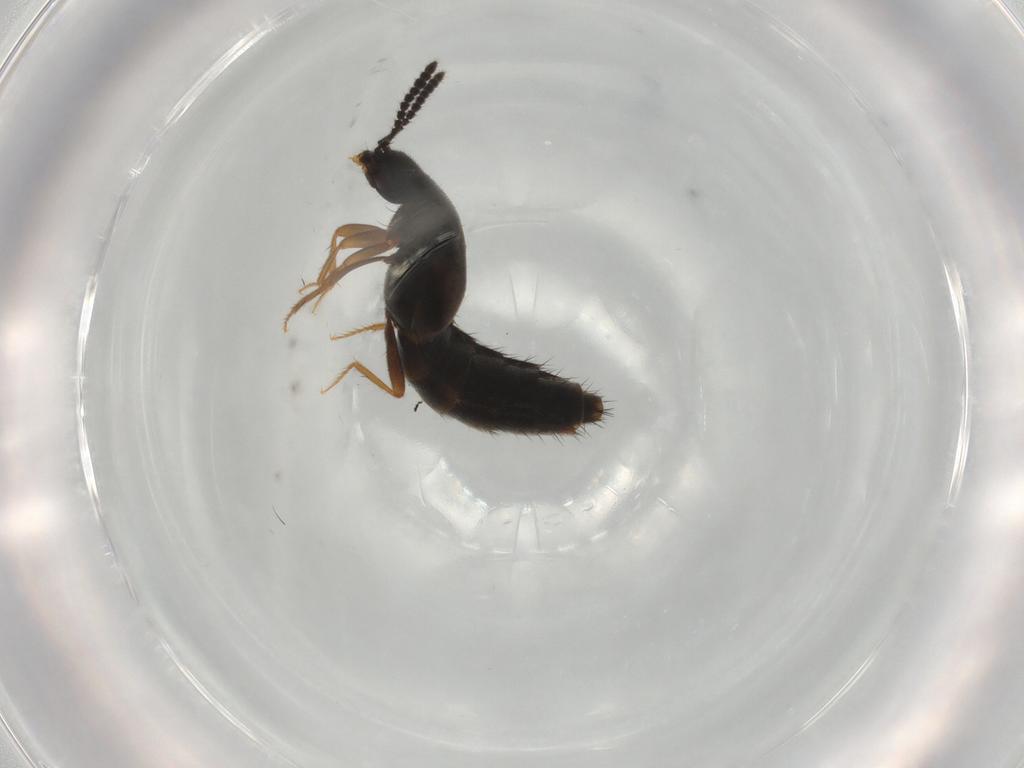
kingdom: Animalia
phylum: Arthropoda
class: Insecta
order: Coleoptera
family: Staphylinidae
